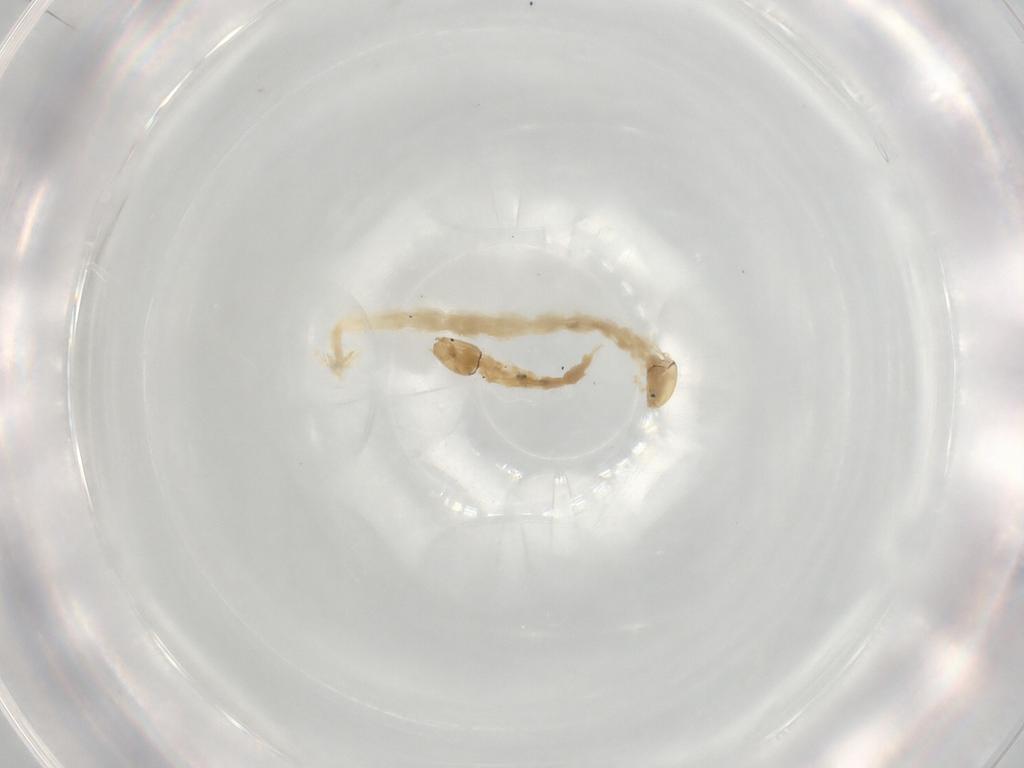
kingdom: Animalia
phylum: Arthropoda
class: Insecta
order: Diptera
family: Chironomidae
